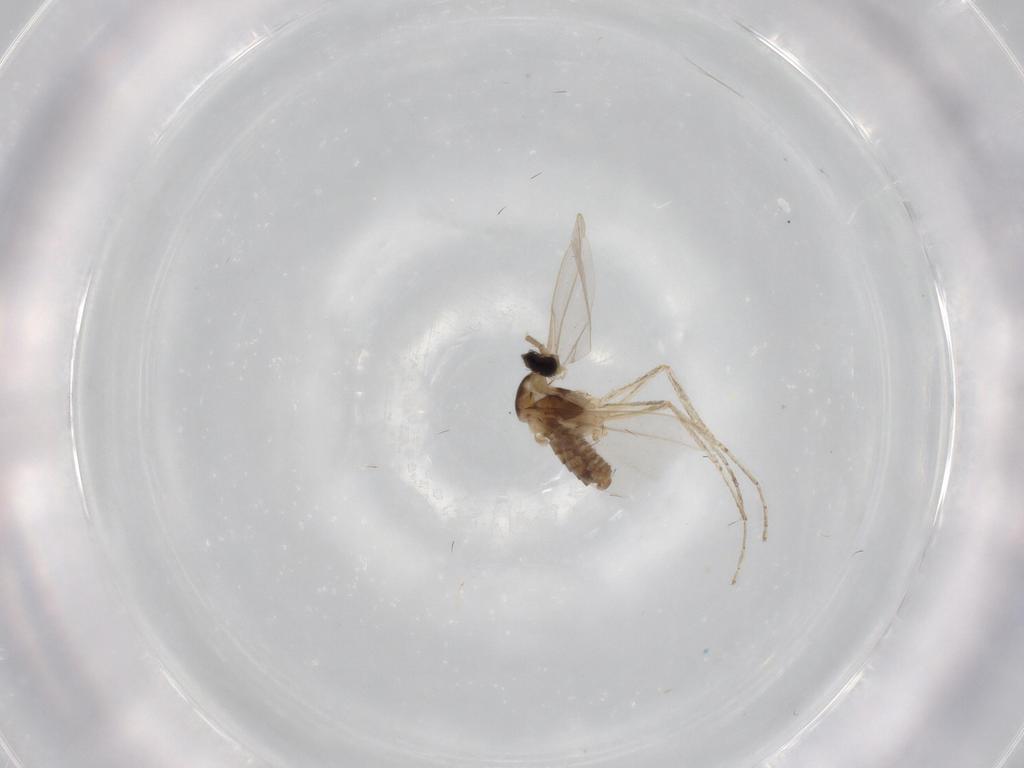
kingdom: Animalia
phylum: Arthropoda
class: Insecta
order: Diptera
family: Cecidomyiidae
